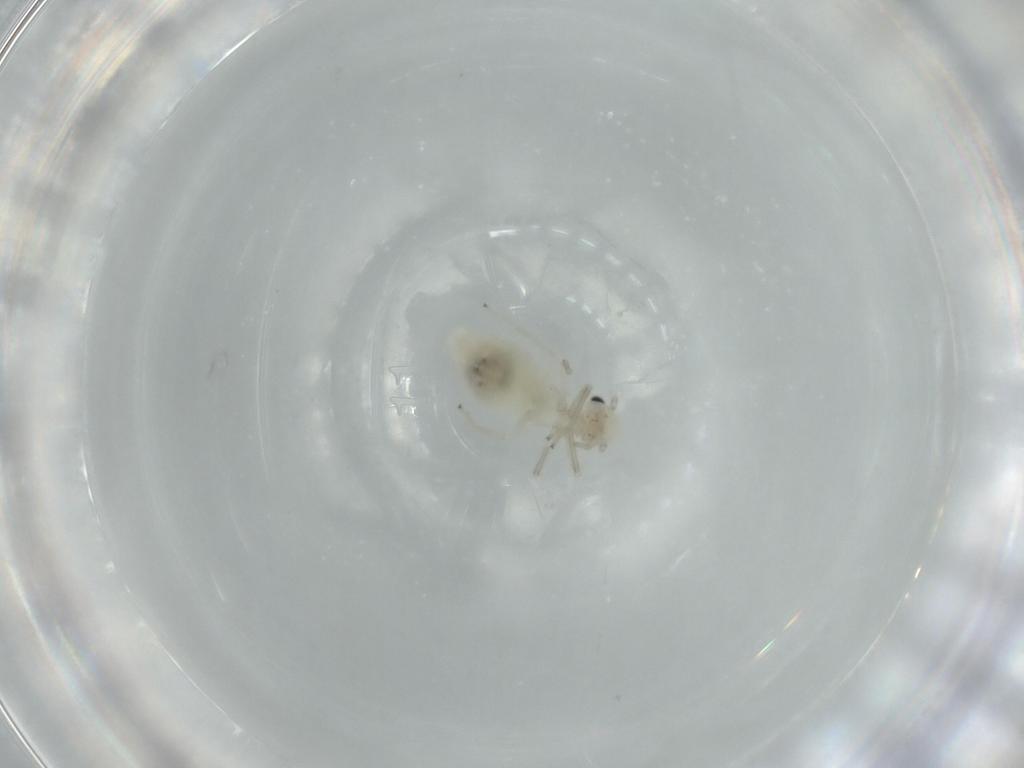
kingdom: Animalia
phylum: Arthropoda
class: Insecta
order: Psocodea
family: Caeciliusidae
